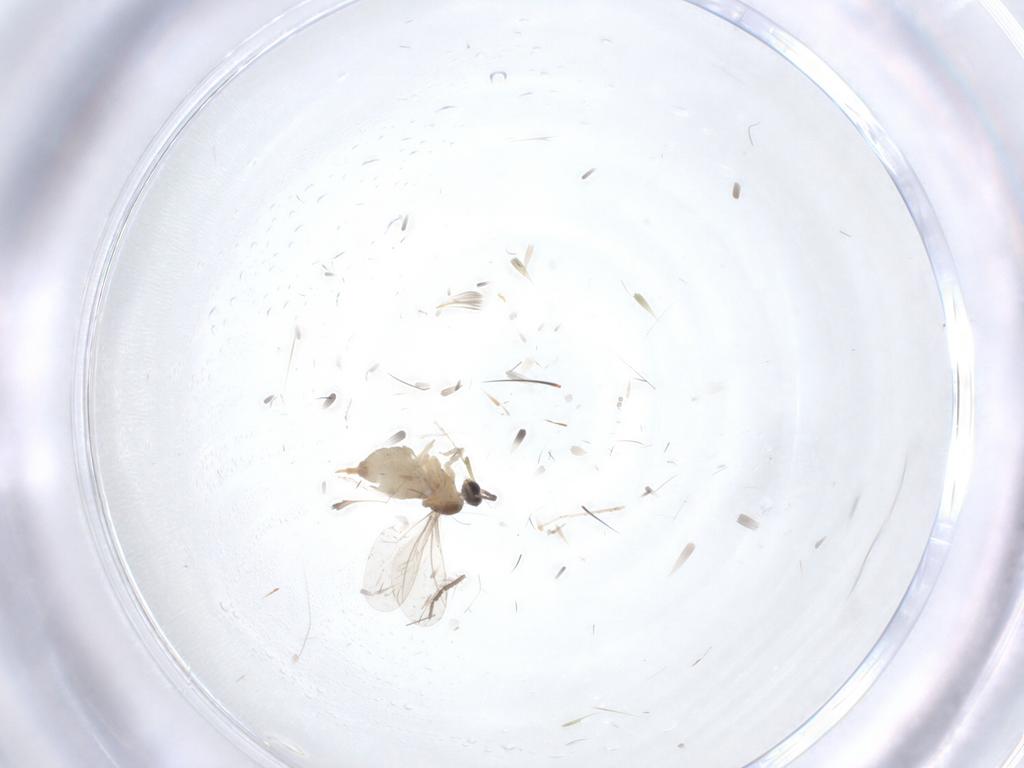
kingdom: Animalia
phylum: Arthropoda
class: Insecta
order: Diptera
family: Cecidomyiidae
